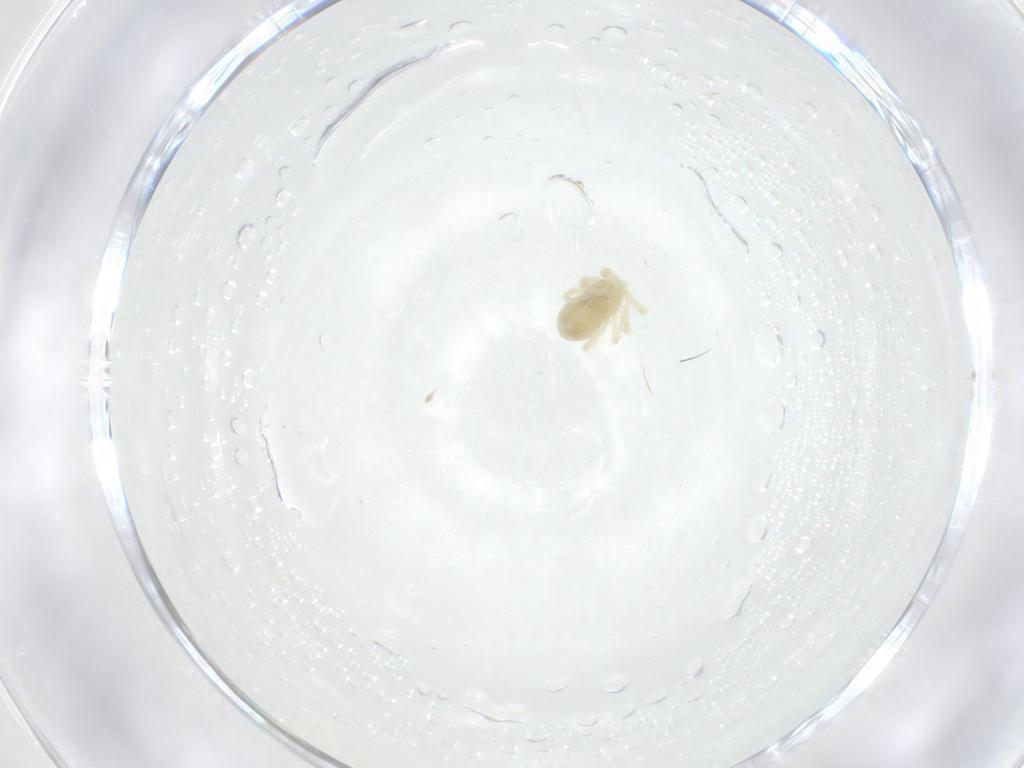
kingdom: Animalia
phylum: Arthropoda
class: Arachnida
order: Trombidiformes
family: Anystidae
